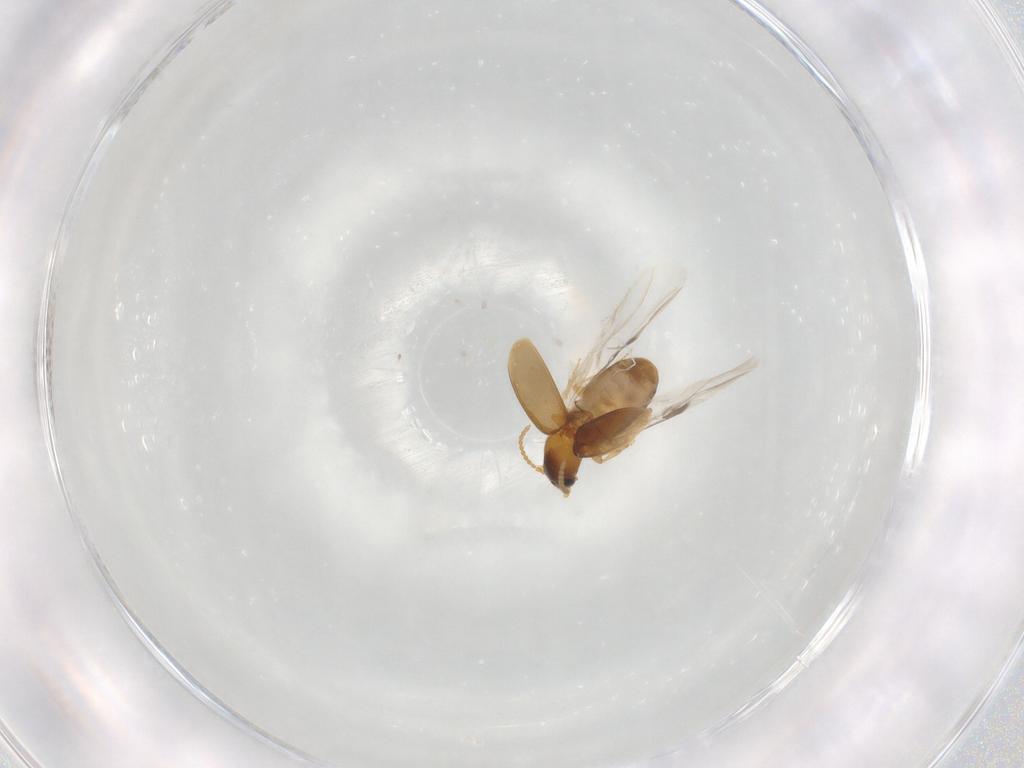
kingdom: Animalia
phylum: Arthropoda
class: Insecta
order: Coleoptera
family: Carabidae
